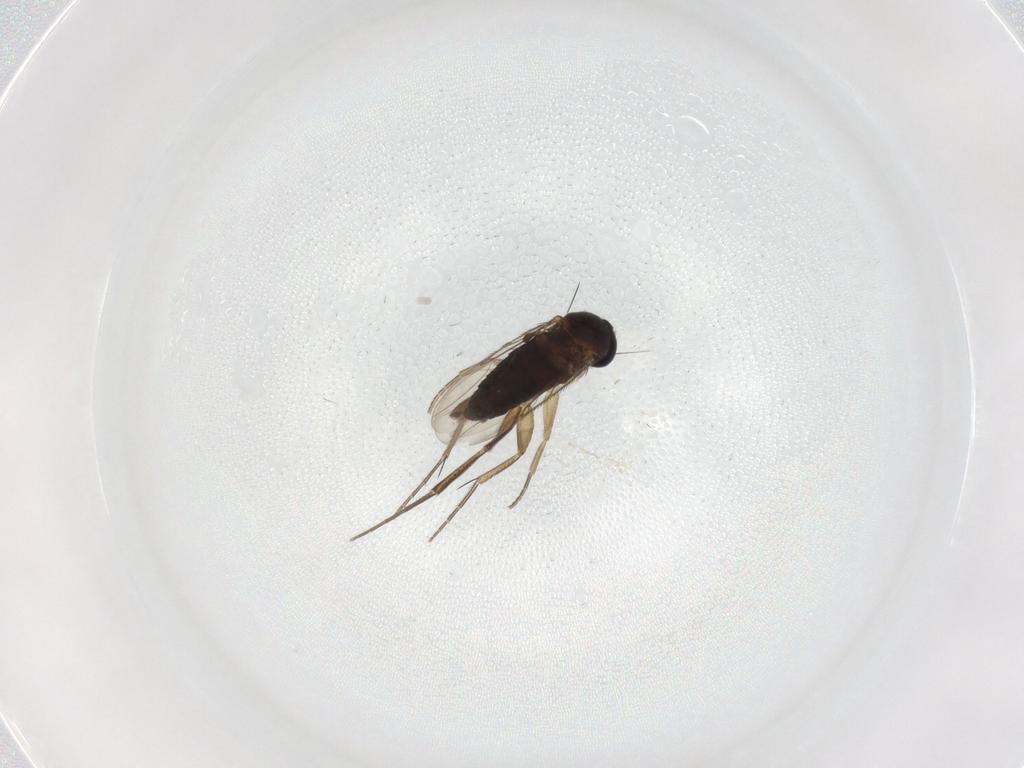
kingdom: Animalia
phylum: Arthropoda
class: Insecta
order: Diptera
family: Phoridae
